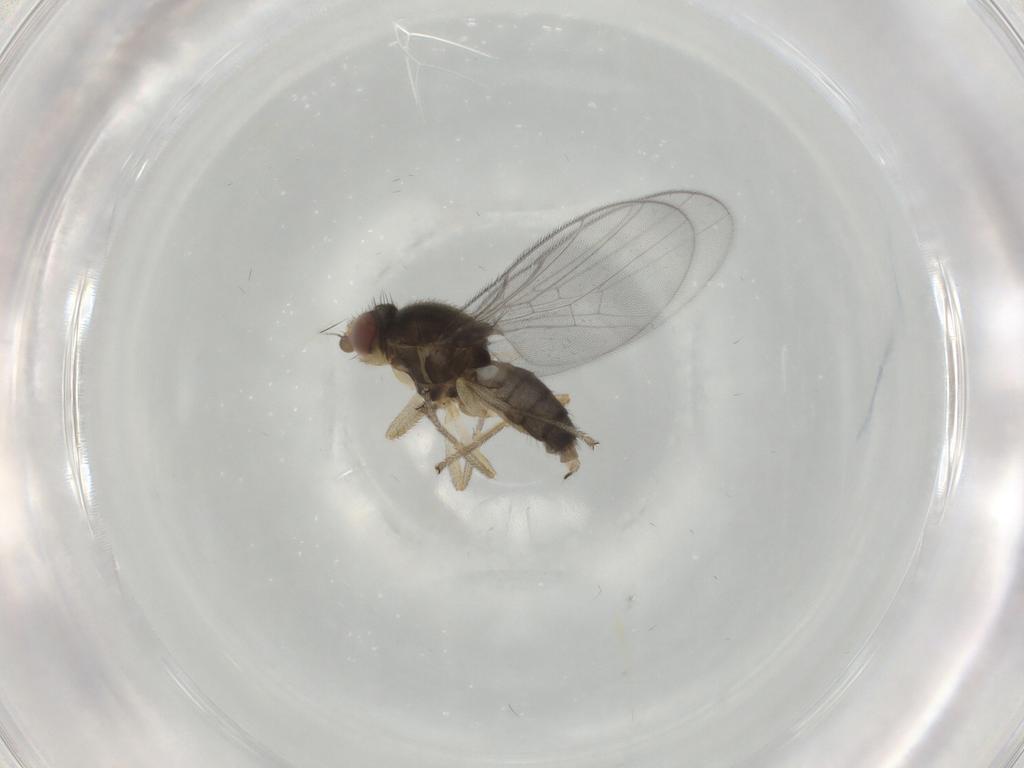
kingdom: Animalia
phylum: Arthropoda
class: Insecta
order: Diptera
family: Chloropidae
